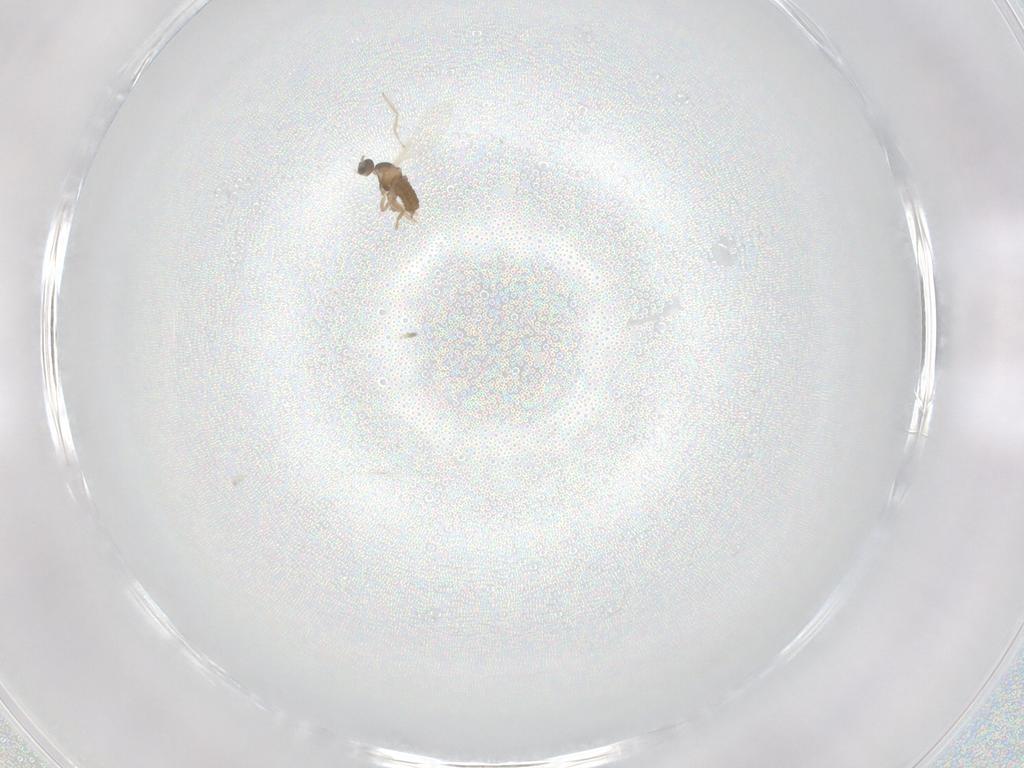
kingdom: Animalia
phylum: Arthropoda
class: Insecta
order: Diptera
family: Cecidomyiidae
